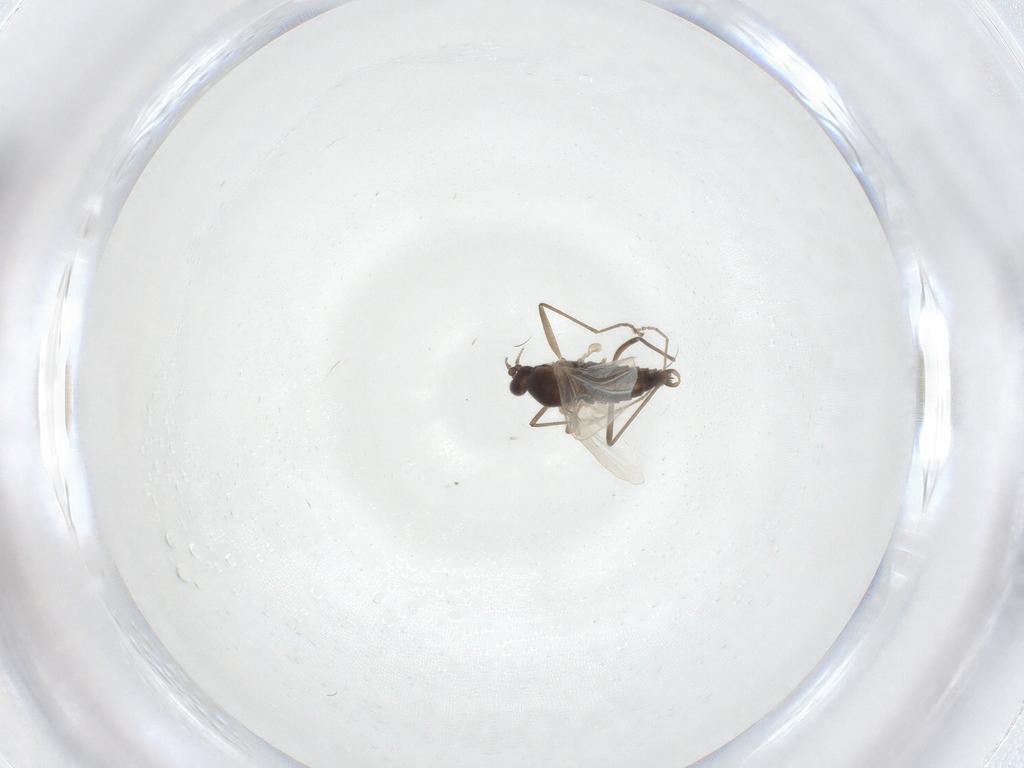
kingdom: Animalia
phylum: Arthropoda
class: Insecta
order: Diptera
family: Cecidomyiidae
